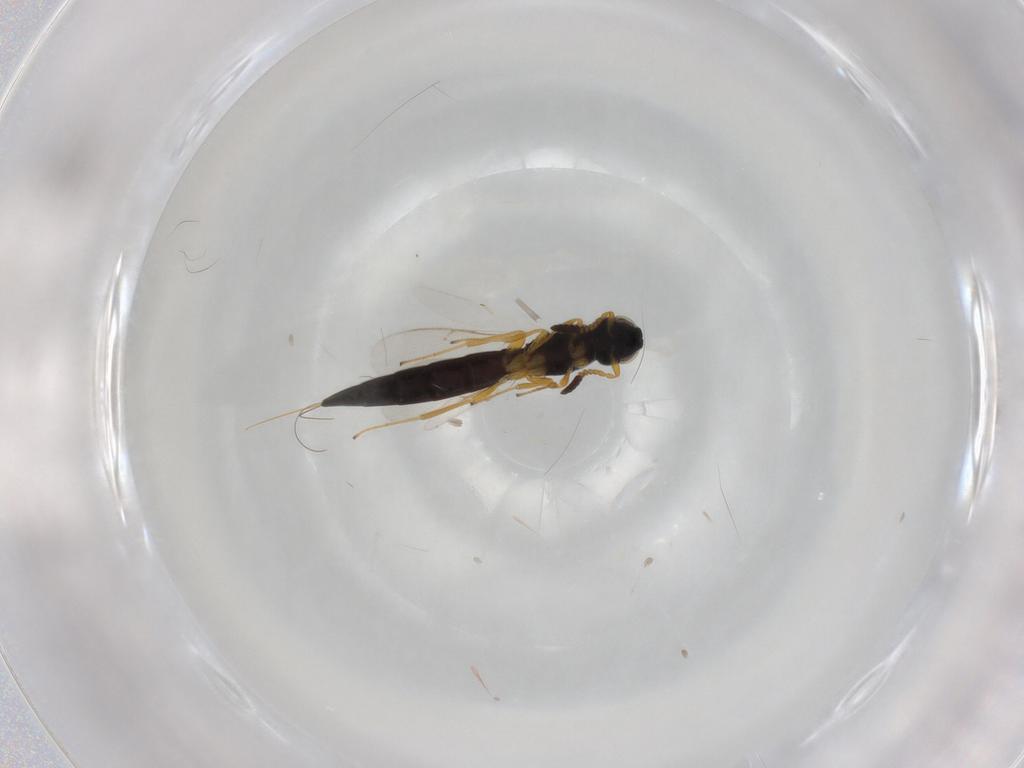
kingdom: Animalia
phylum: Arthropoda
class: Insecta
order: Hymenoptera
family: Scelionidae
